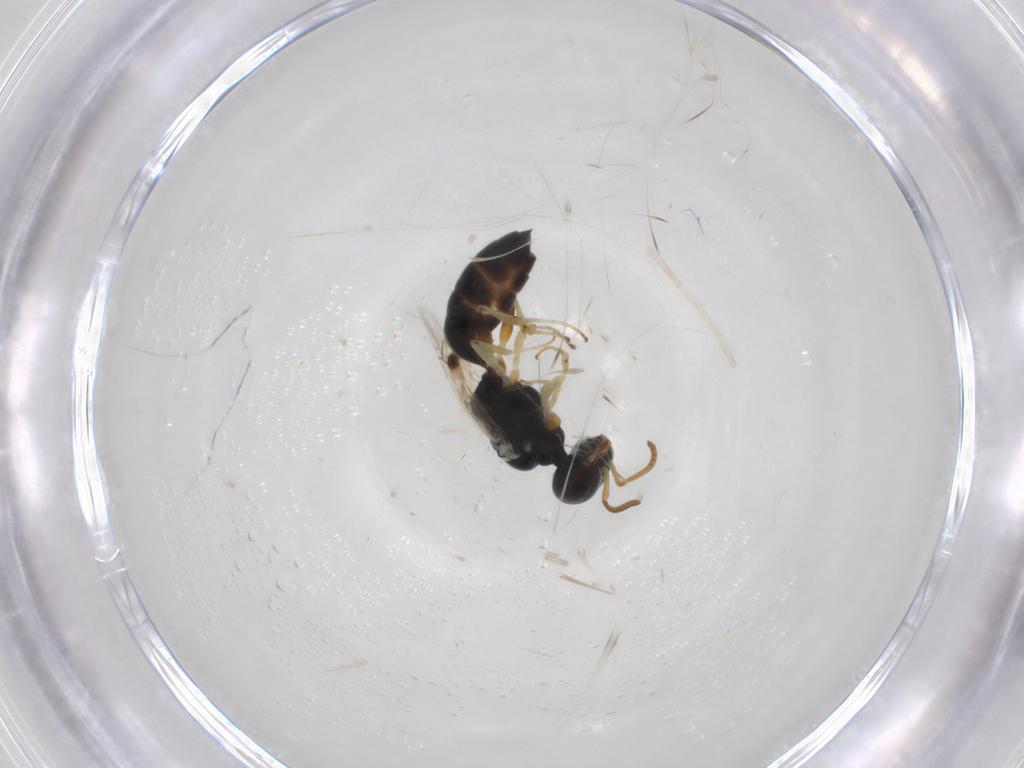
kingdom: Animalia
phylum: Arthropoda
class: Insecta
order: Hymenoptera
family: Pemphredonidae
